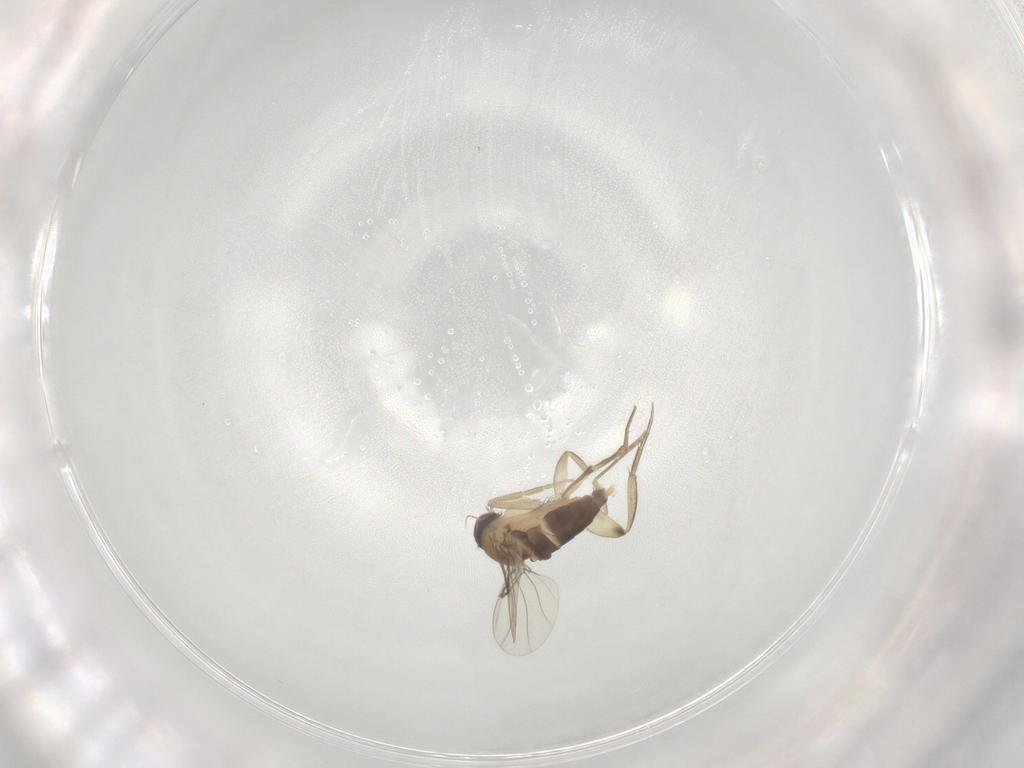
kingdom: Animalia
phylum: Arthropoda
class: Insecta
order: Diptera
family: Phoridae
